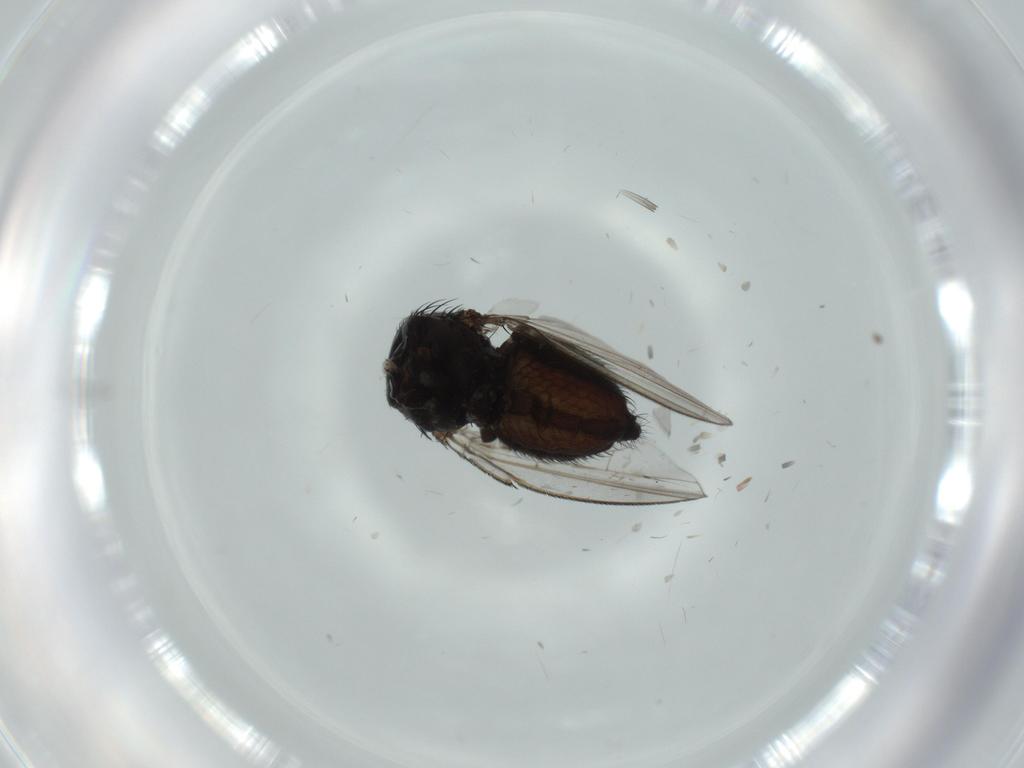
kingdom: Animalia
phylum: Arthropoda
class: Insecta
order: Diptera
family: Milichiidae
